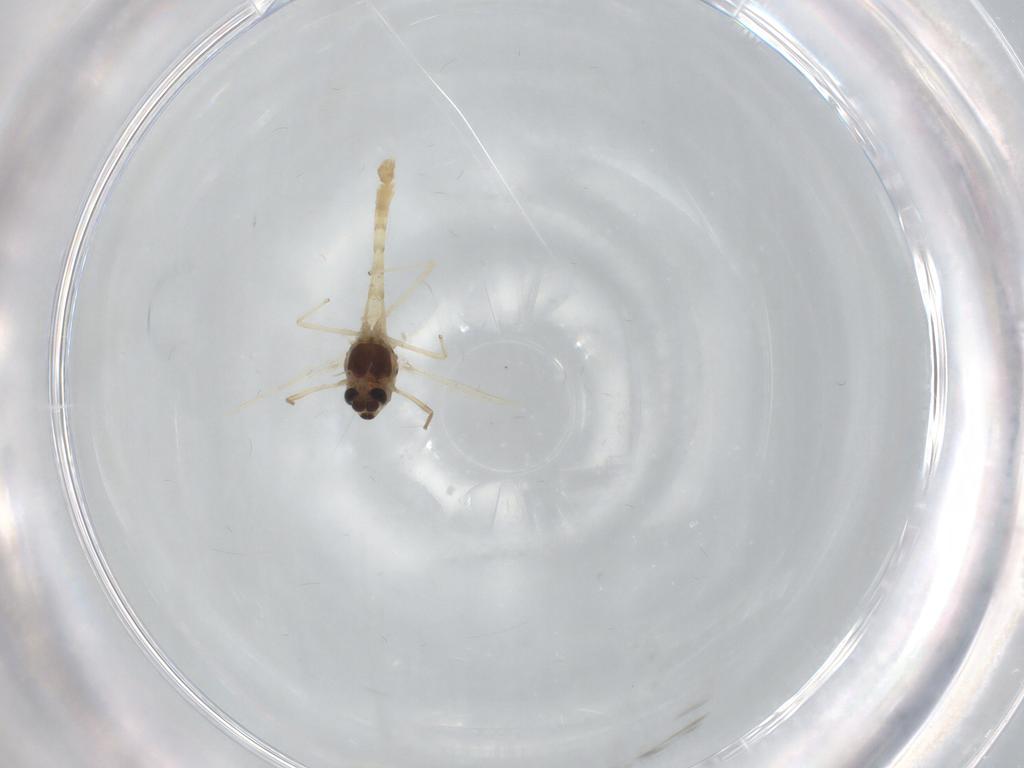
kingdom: Animalia
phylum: Arthropoda
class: Insecta
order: Diptera
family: Chironomidae
